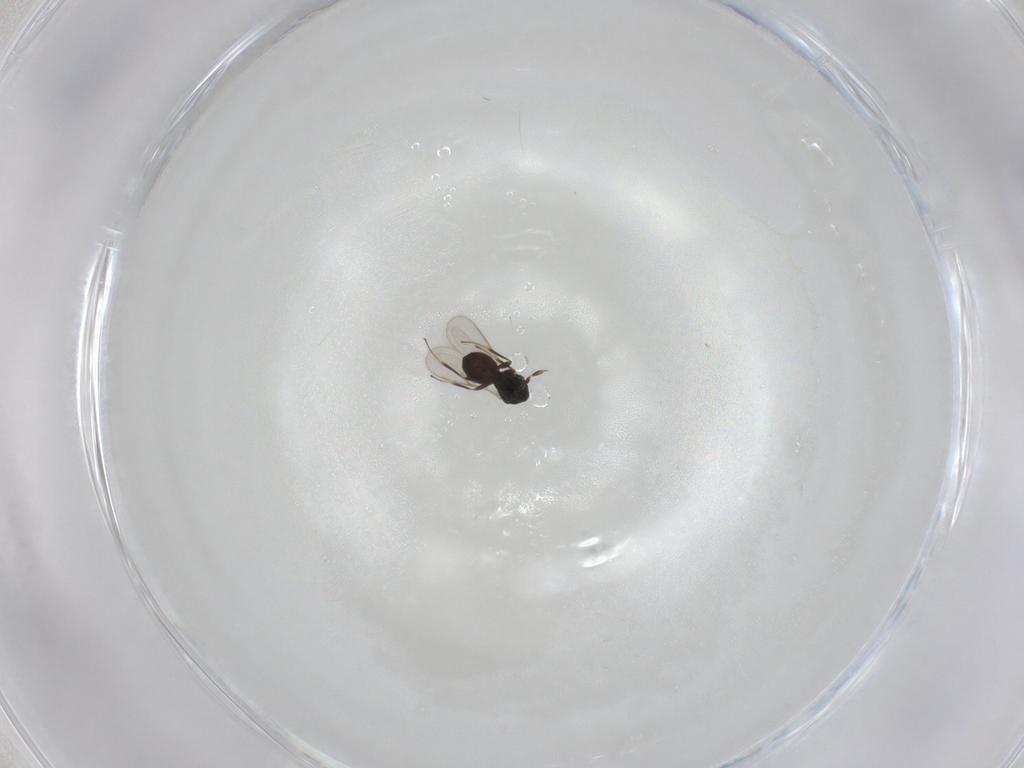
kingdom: Animalia
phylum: Arthropoda
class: Insecta
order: Hymenoptera
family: Scelionidae
